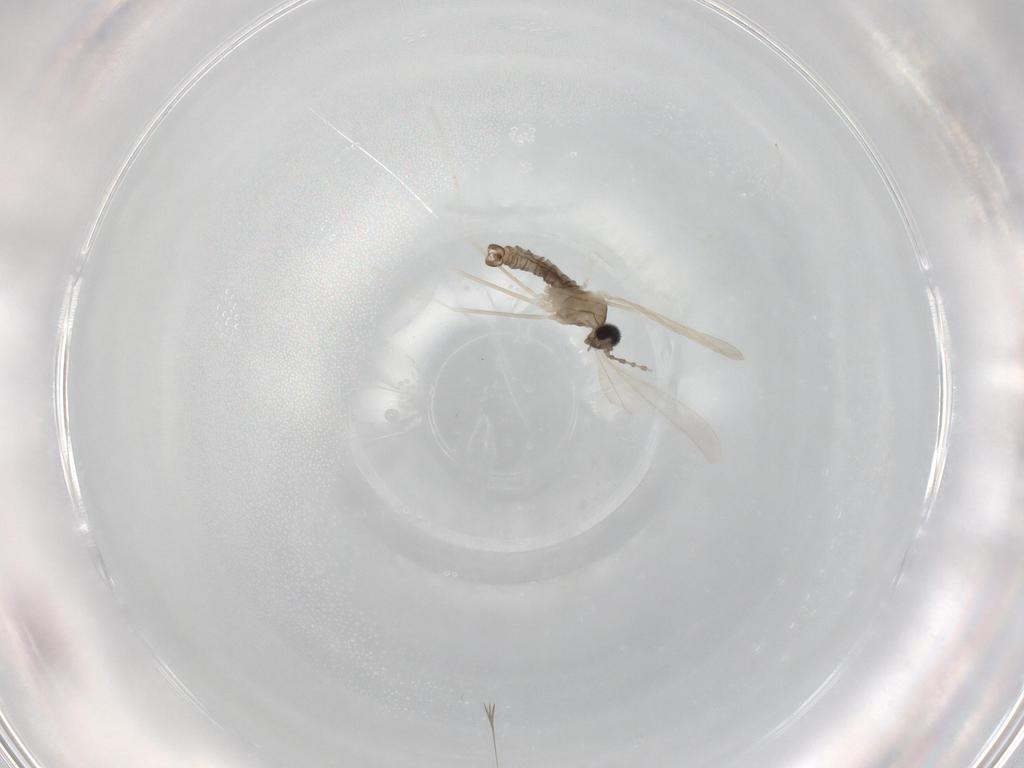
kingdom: Animalia
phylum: Arthropoda
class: Insecta
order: Diptera
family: Cecidomyiidae
